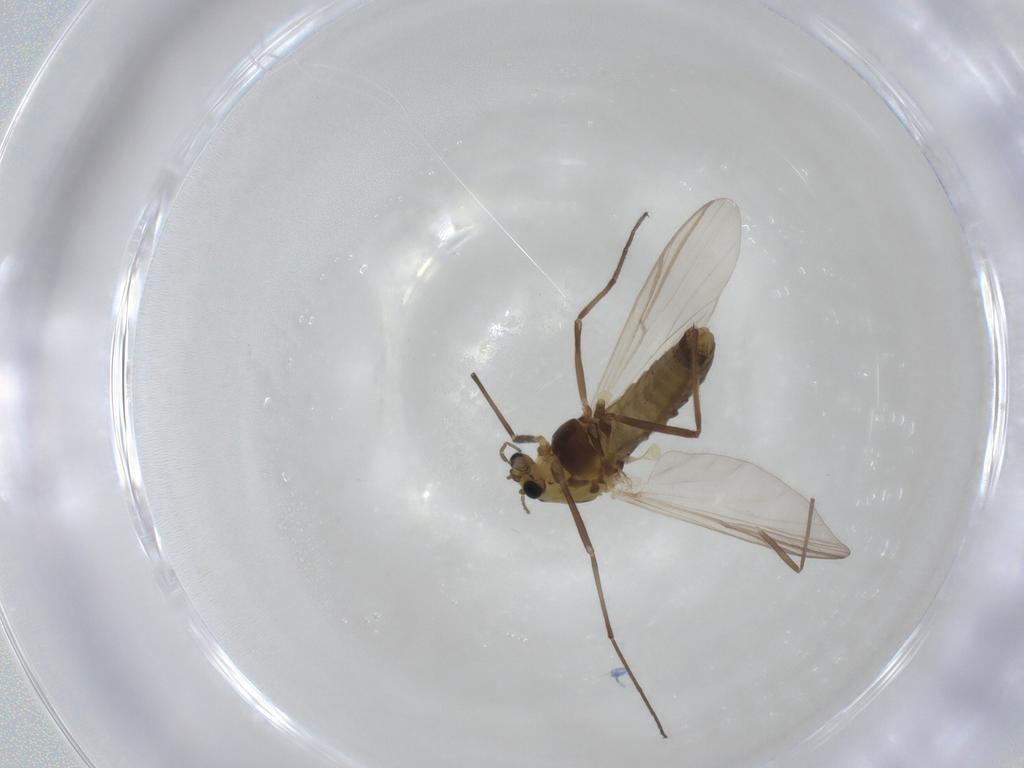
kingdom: Animalia
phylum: Arthropoda
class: Insecta
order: Diptera
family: Chironomidae
